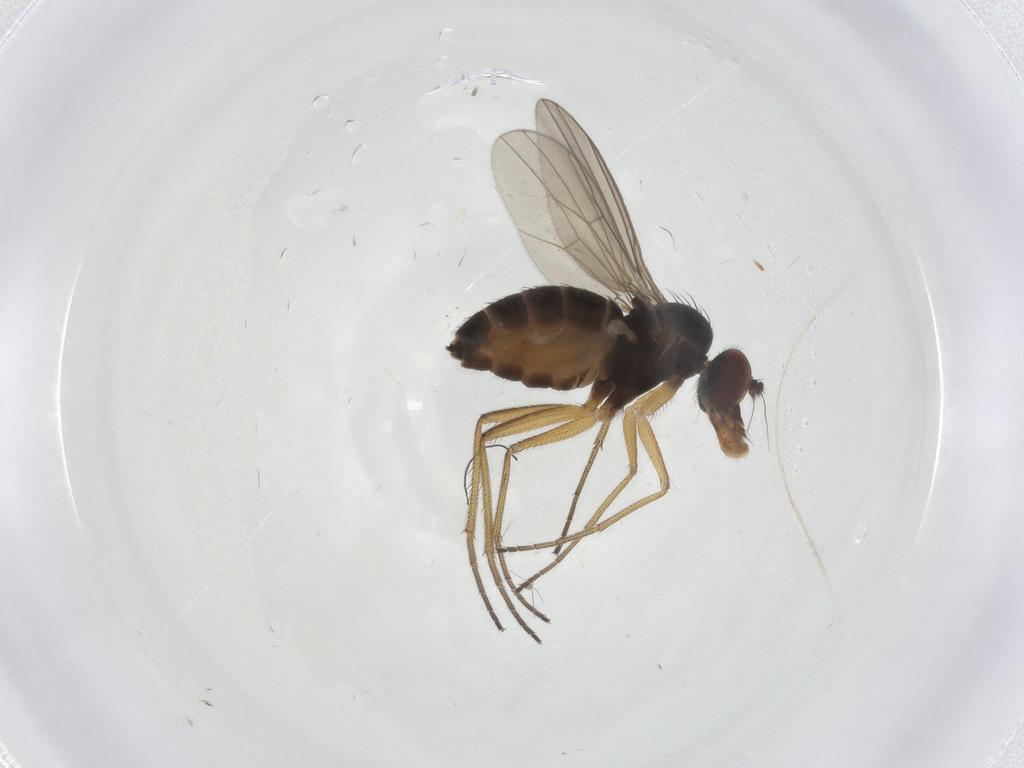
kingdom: Animalia
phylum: Arthropoda
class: Insecta
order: Diptera
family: Dolichopodidae
